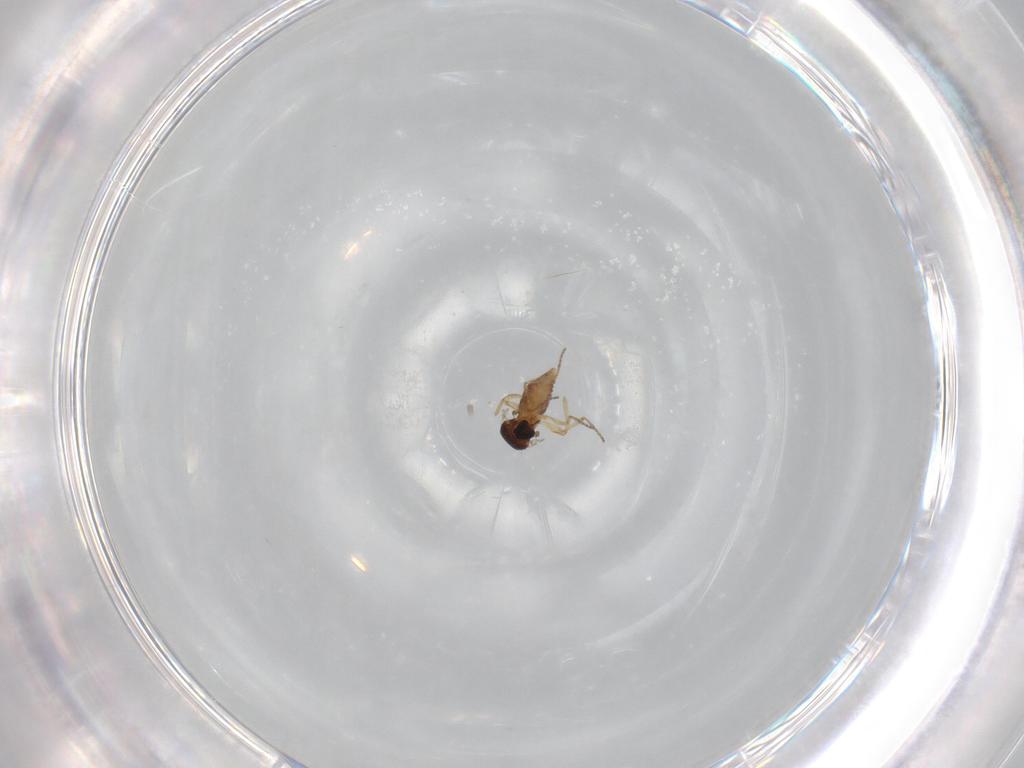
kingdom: Animalia
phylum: Arthropoda
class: Insecta
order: Diptera
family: Ceratopogonidae
